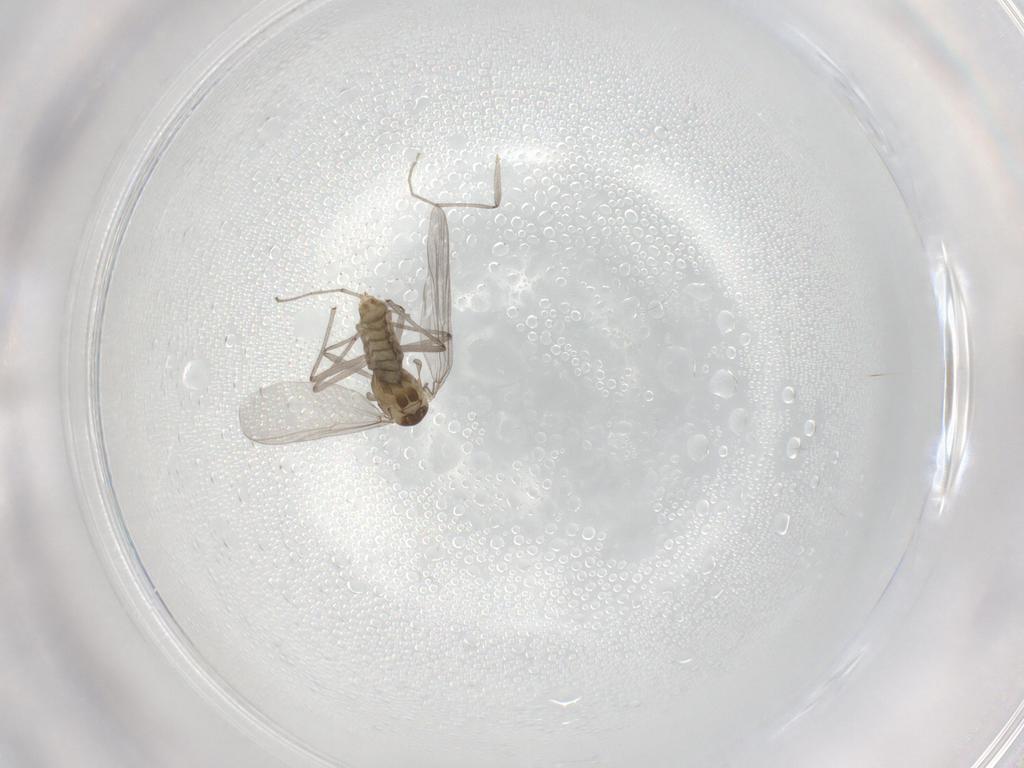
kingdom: Animalia
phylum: Arthropoda
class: Insecta
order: Diptera
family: Chironomidae
